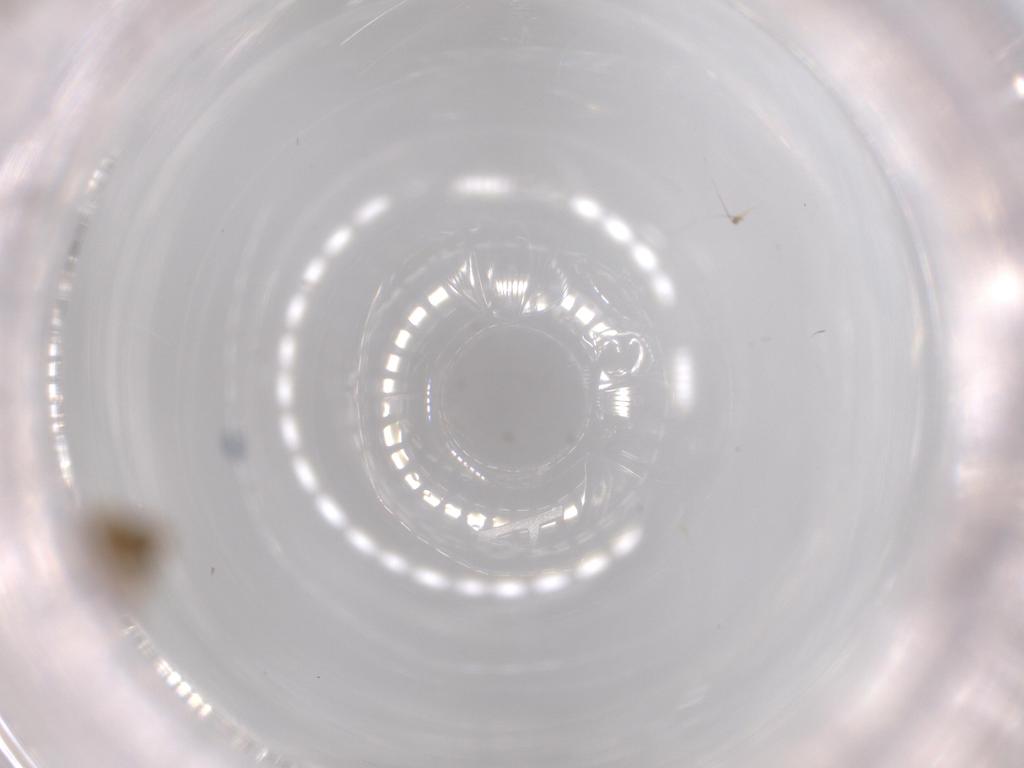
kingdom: Animalia
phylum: Arthropoda
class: Insecta
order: Diptera
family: Chironomidae
